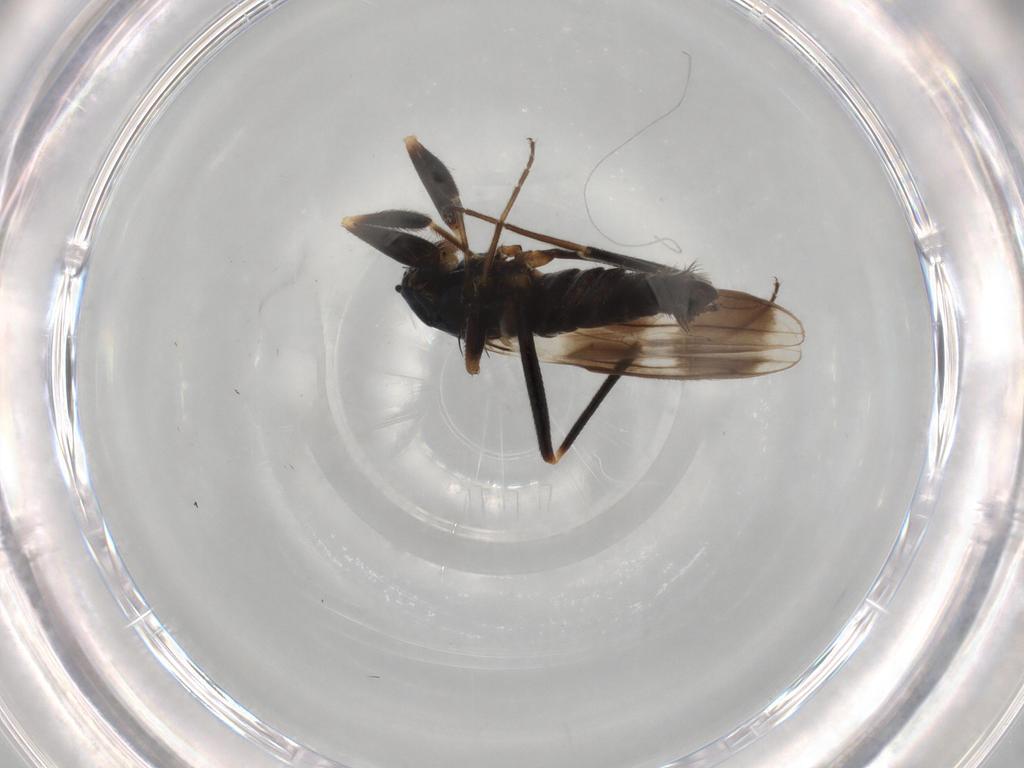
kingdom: Animalia
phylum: Arthropoda
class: Insecta
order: Diptera
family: Hybotidae
